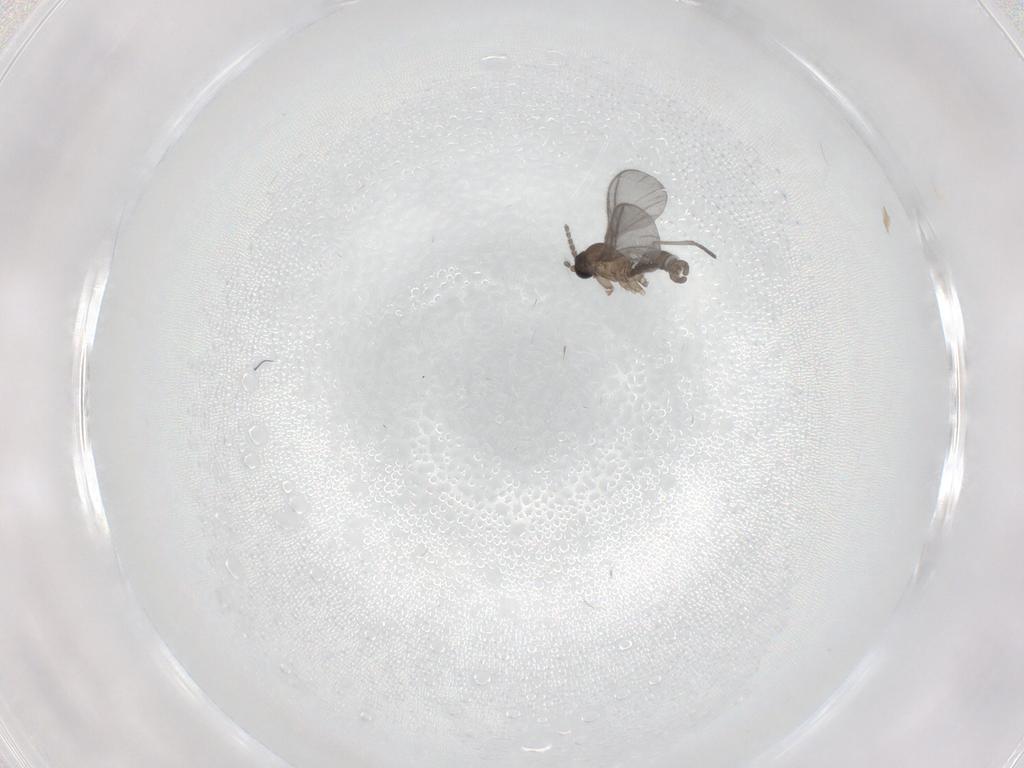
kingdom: Animalia
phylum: Arthropoda
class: Insecta
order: Diptera
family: Sciaridae
